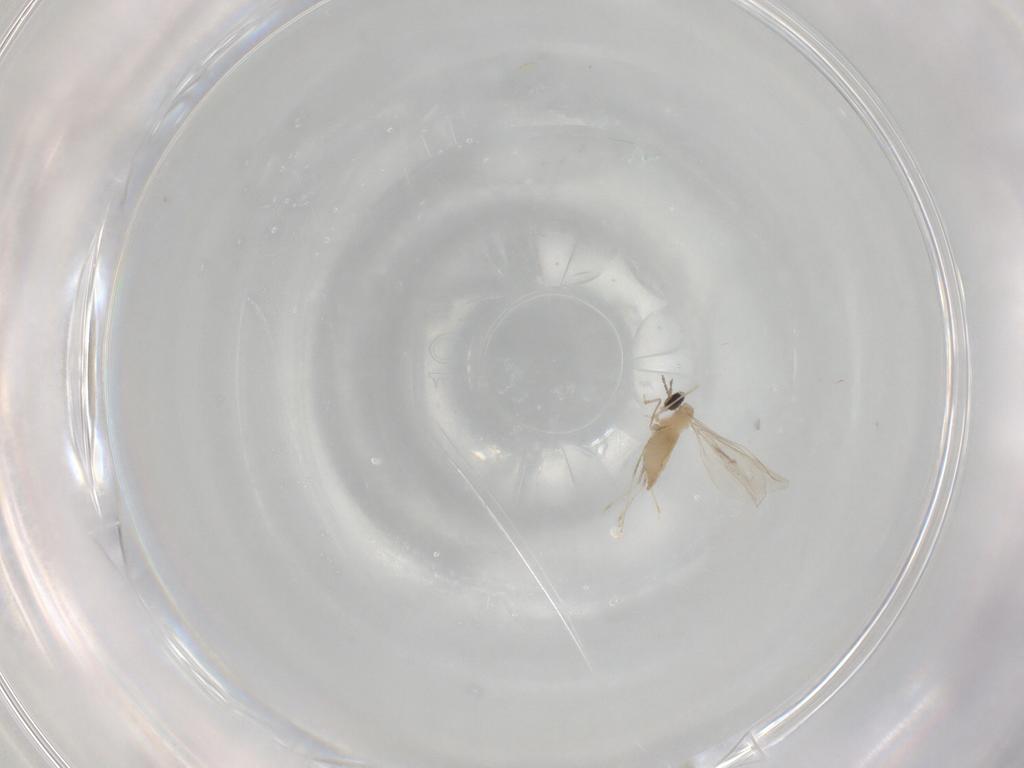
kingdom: Animalia
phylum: Arthropoda
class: Insecta
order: Diptera
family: Cecidomyiidae
